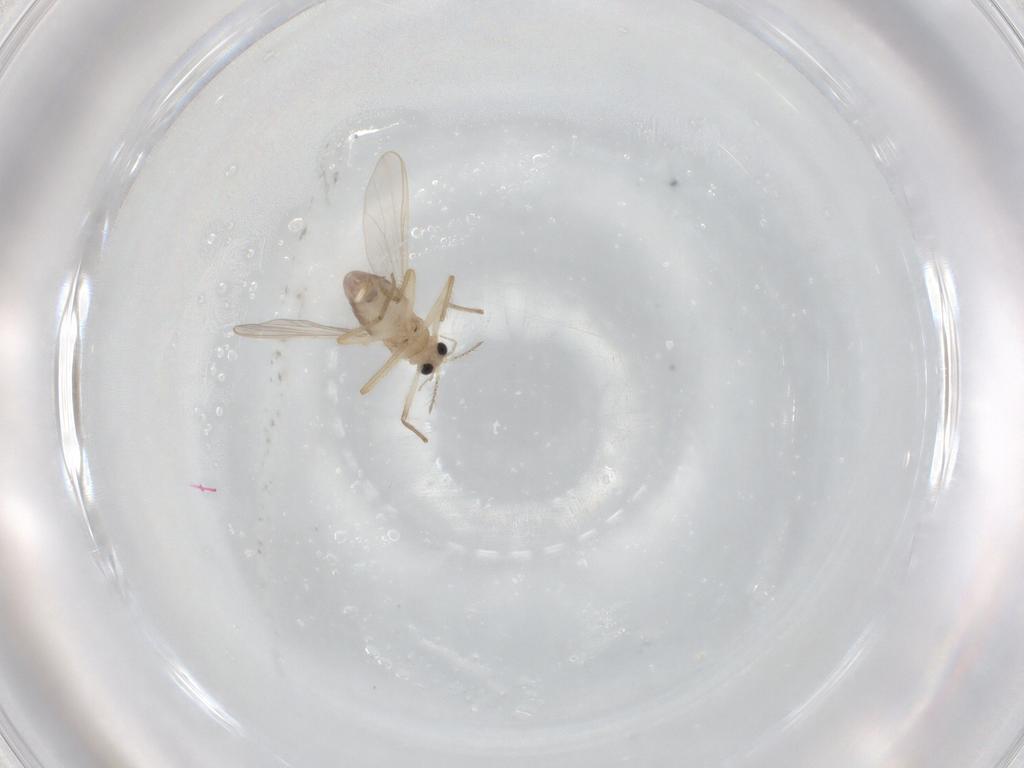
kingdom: Animalia
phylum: Arthropoda
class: Insecta
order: Diptera
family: Chironomidae
